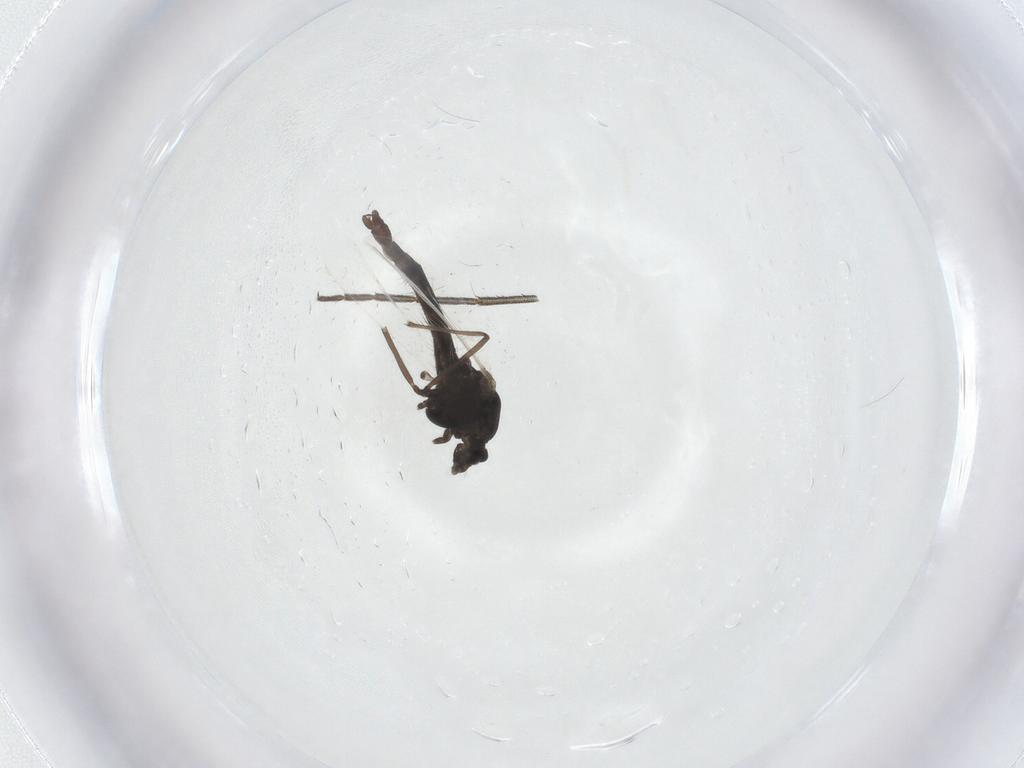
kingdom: Animalia
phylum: Arthropoda
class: Insecta
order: Diptera
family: Mycetophilidae
